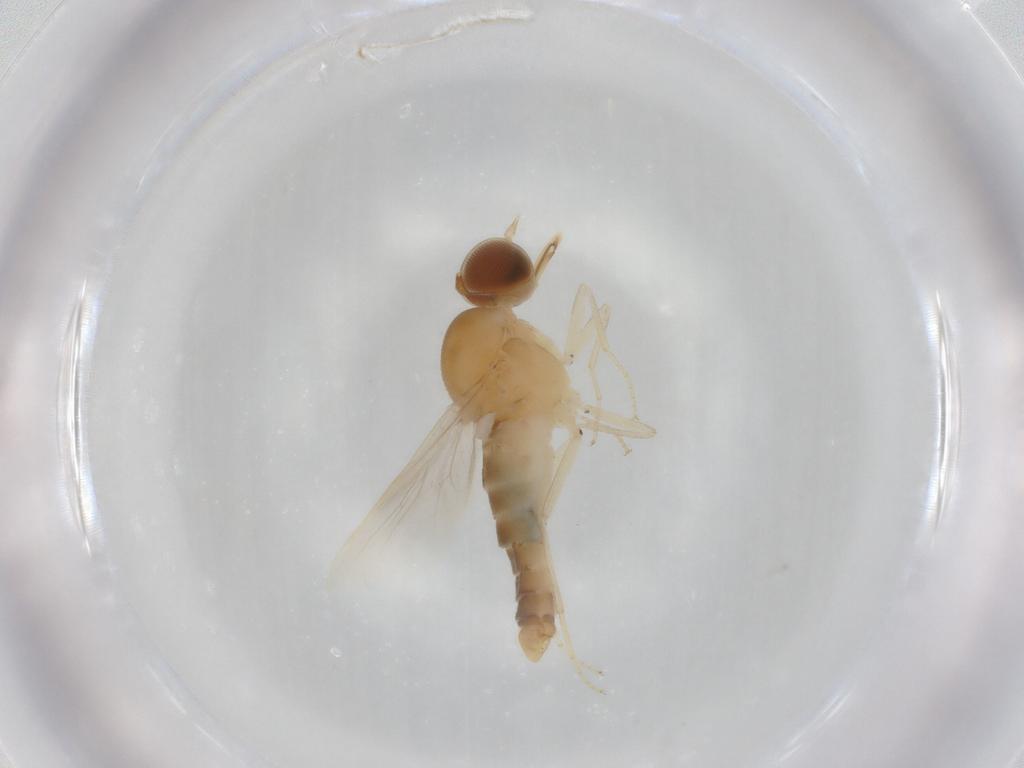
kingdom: Animalia
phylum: Arthropoda
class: Insecta
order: Diptera
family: Scenopinidae
